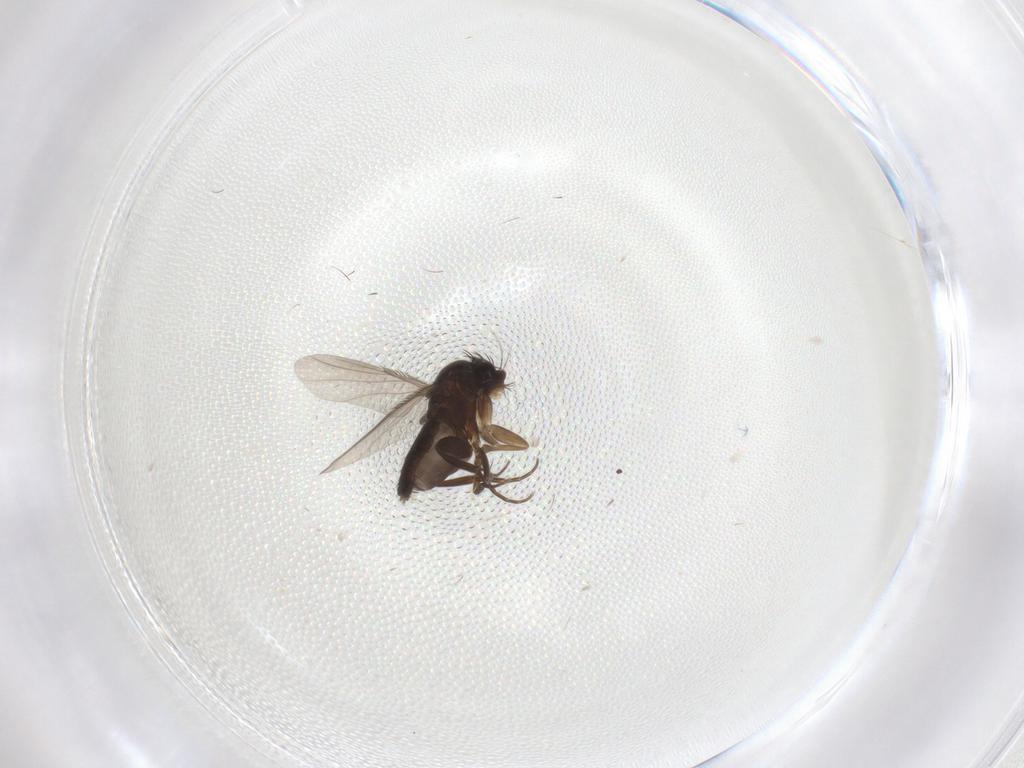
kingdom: Animalia
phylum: Arthropoda
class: Insecta
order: Diptera
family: Phoridae
